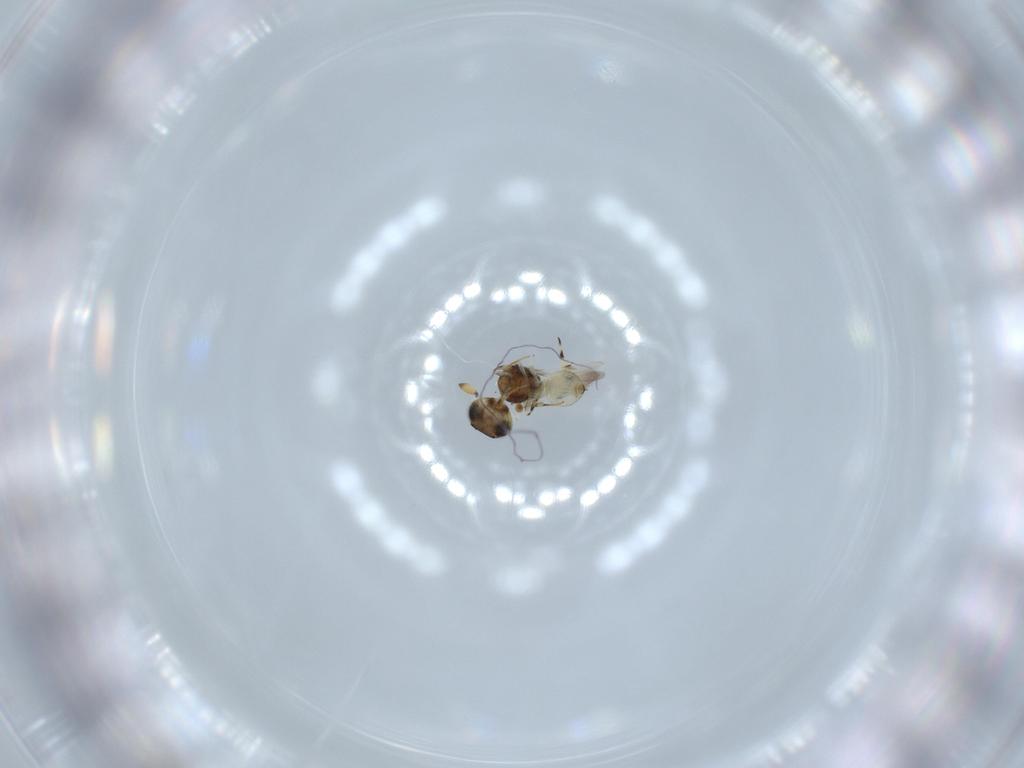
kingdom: Animalia
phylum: Arthropoda
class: Insecta
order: Hymenoptera
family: Scelionidae
